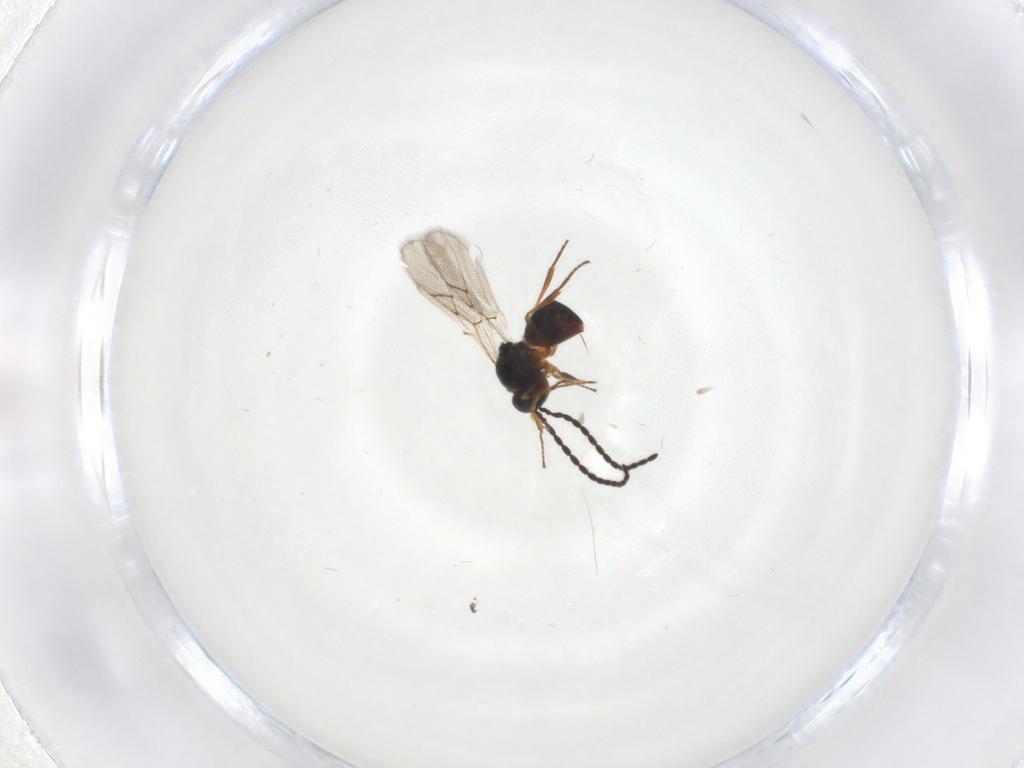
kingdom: Animalia
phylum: Arthropoda
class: Insecta
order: Hymenoptera
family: Figitidae
